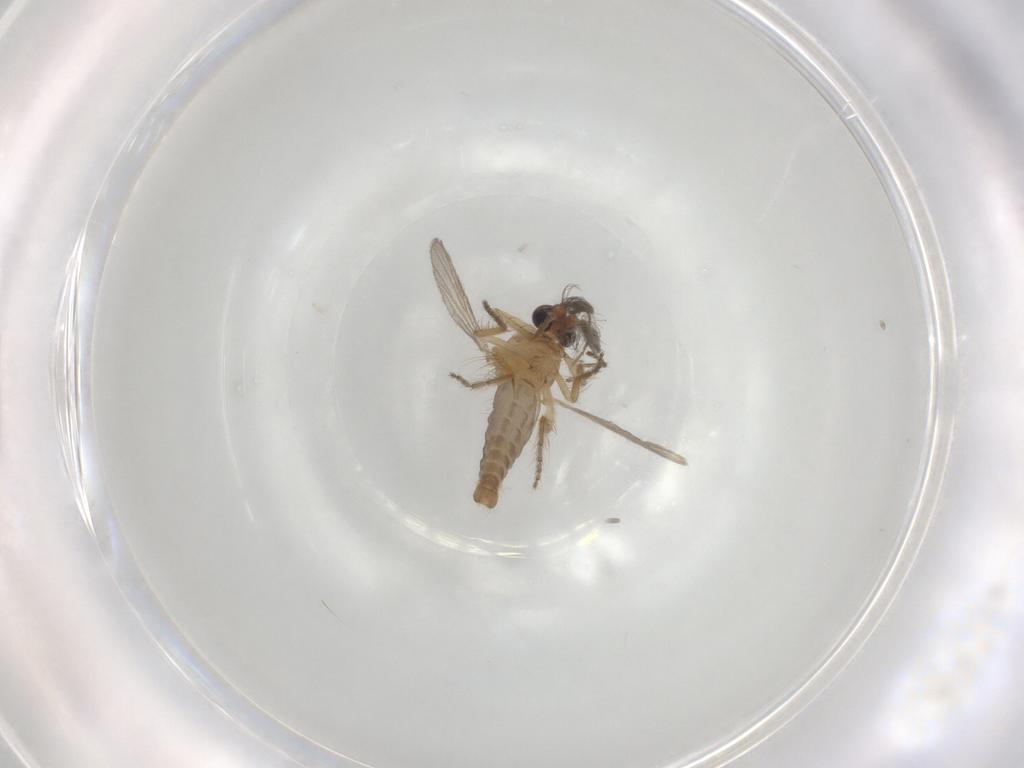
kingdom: Animalia
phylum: Arthropoda
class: Insecta
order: Diptera
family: Ceratopogonidae
